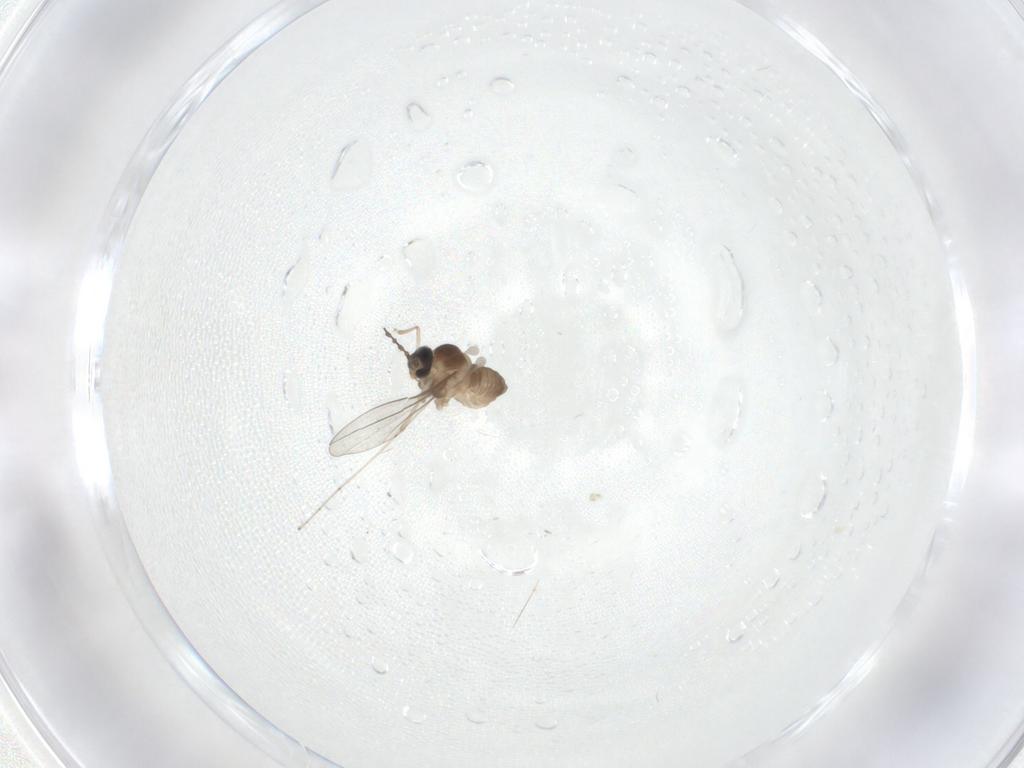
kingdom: Animalia
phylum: Arthropoda
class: Insecta
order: Diptera
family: Cecidomyiidae
